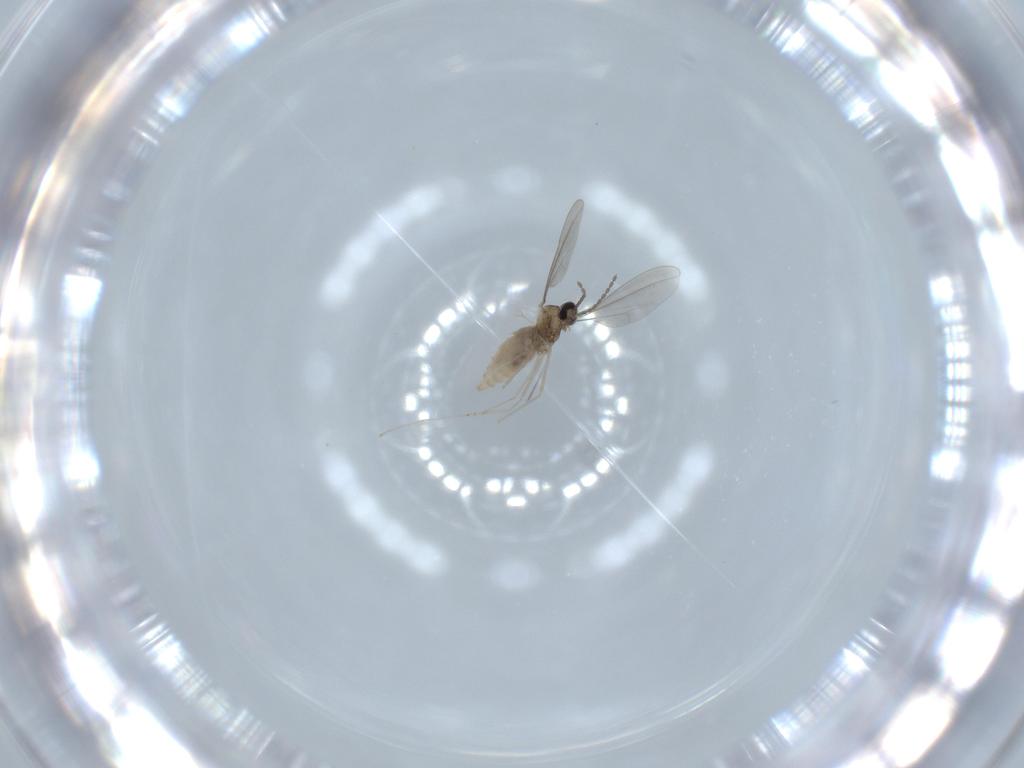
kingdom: Animalia
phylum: Arthropoda
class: Insecta
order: Diptera
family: Cecidomyiidae
